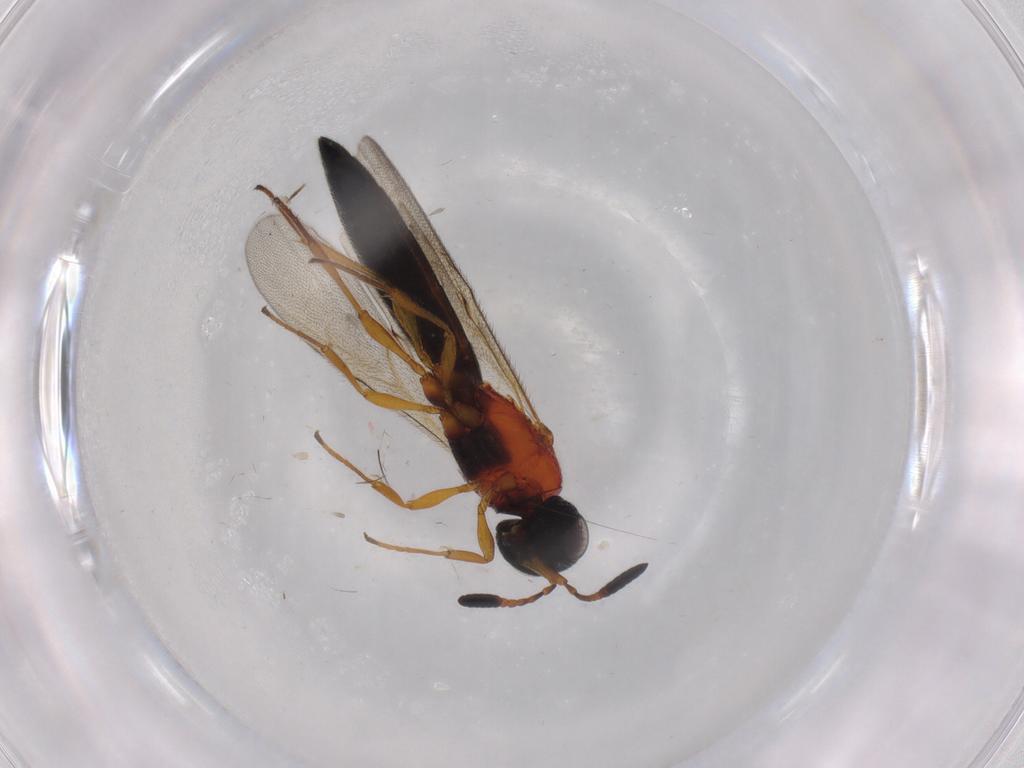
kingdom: Animalia
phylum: Arthropoda
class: Insecta
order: Hymenoptera
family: Scelionidae
